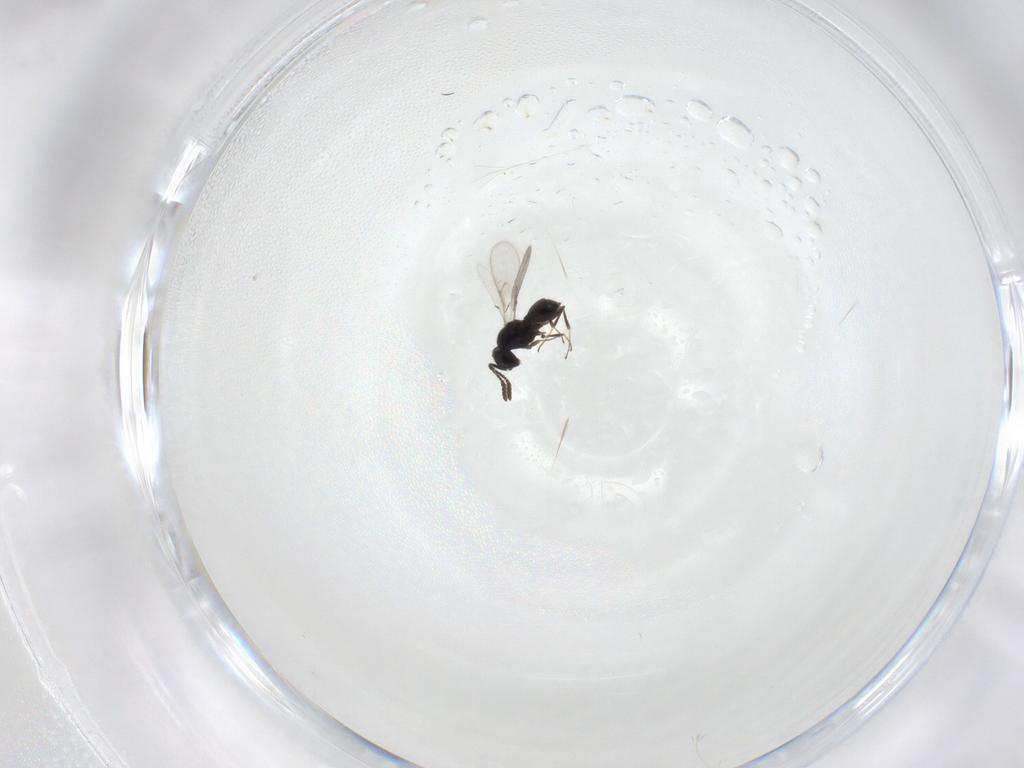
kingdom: Animalia
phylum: Arthropoda
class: Insecta
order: Hymenoptera
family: Scelionidae
